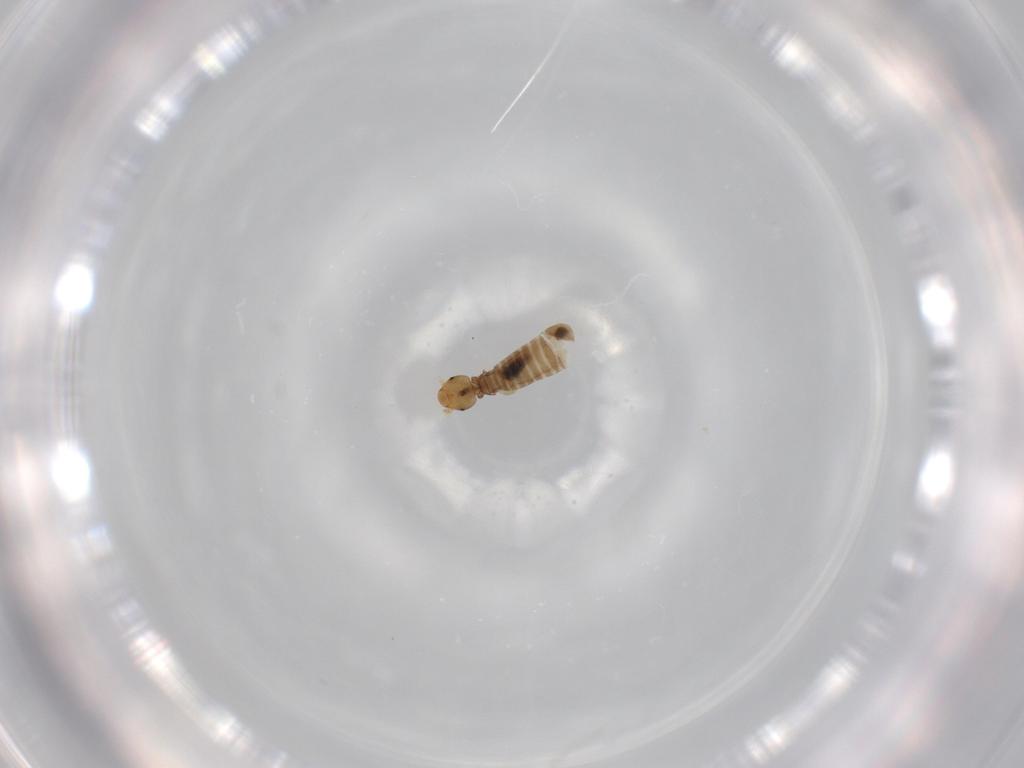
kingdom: Animalia
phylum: Arthropoda
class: Insecta
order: Psocodea
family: Liposcelididae
